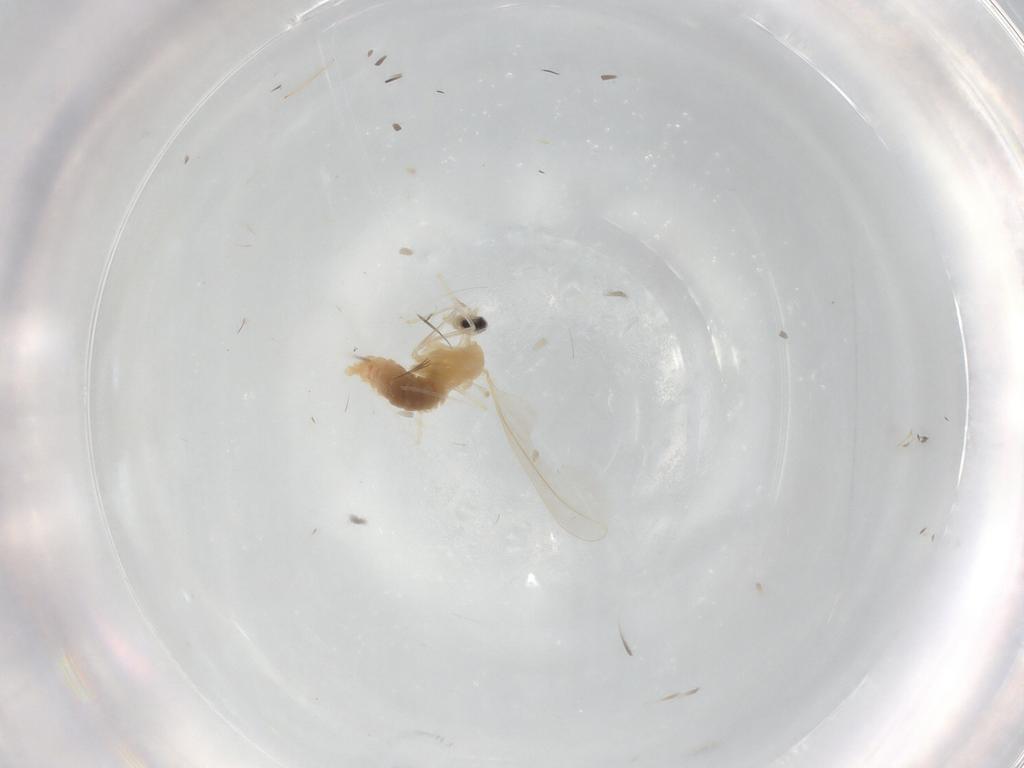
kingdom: Animalia
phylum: Arthropoda
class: Insecta
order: Diptera
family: Cecidomyiidae
